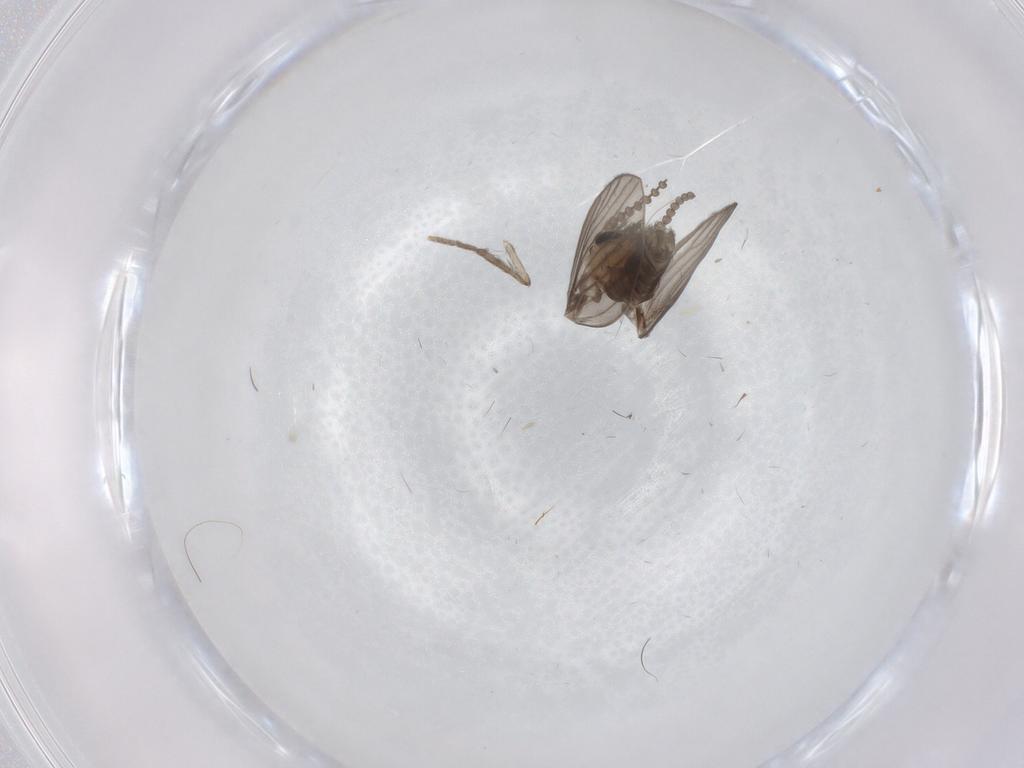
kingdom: Animalia
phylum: Arthropoda
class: Insecta
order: Diptera
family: Psychodidae
